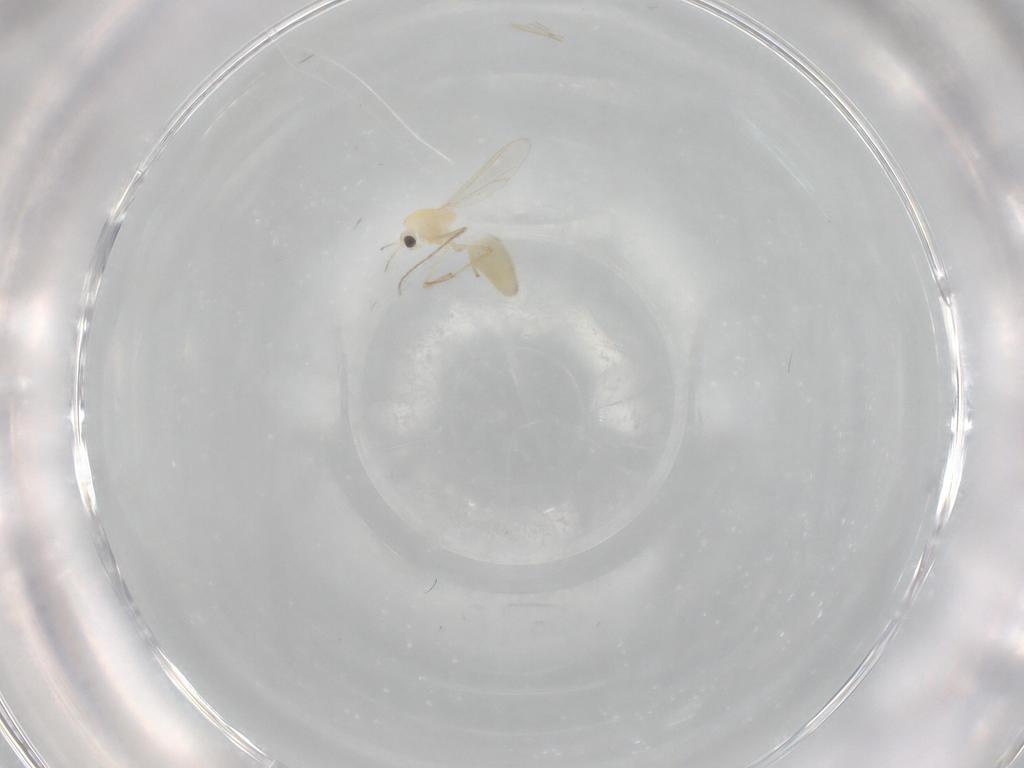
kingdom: Animalia
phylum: Arthropoda
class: Insecta
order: Diptera
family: Chironomidae
